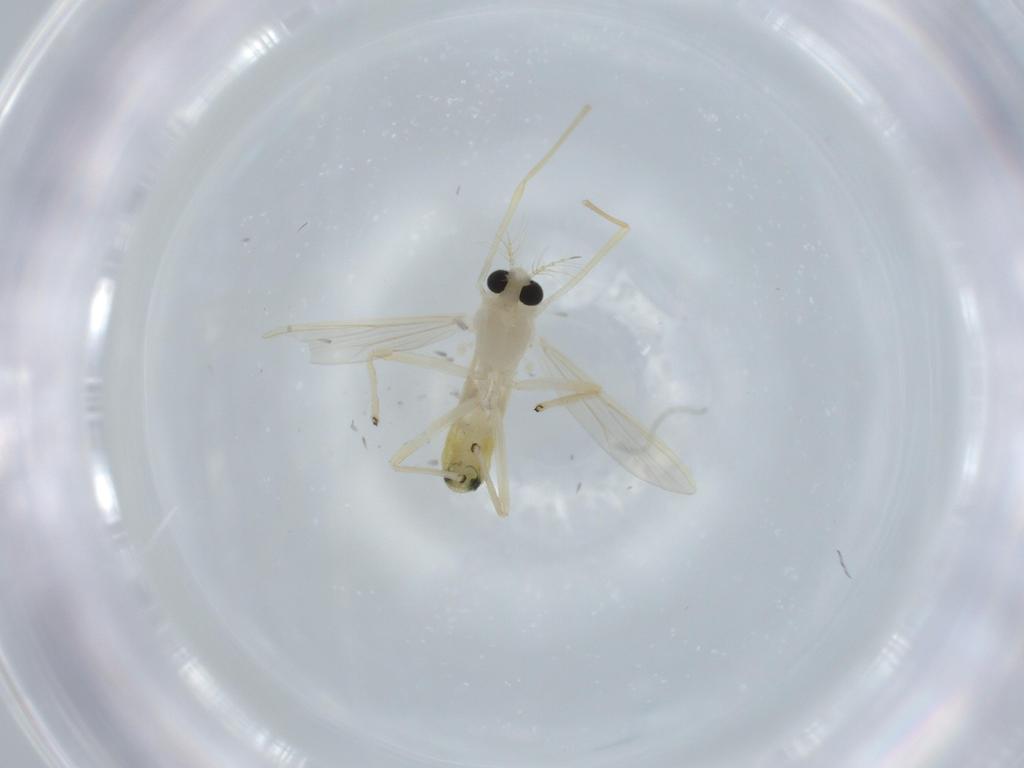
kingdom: Animalia
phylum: Arthropoda
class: Insecta
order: Diptera
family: Chironomidae
